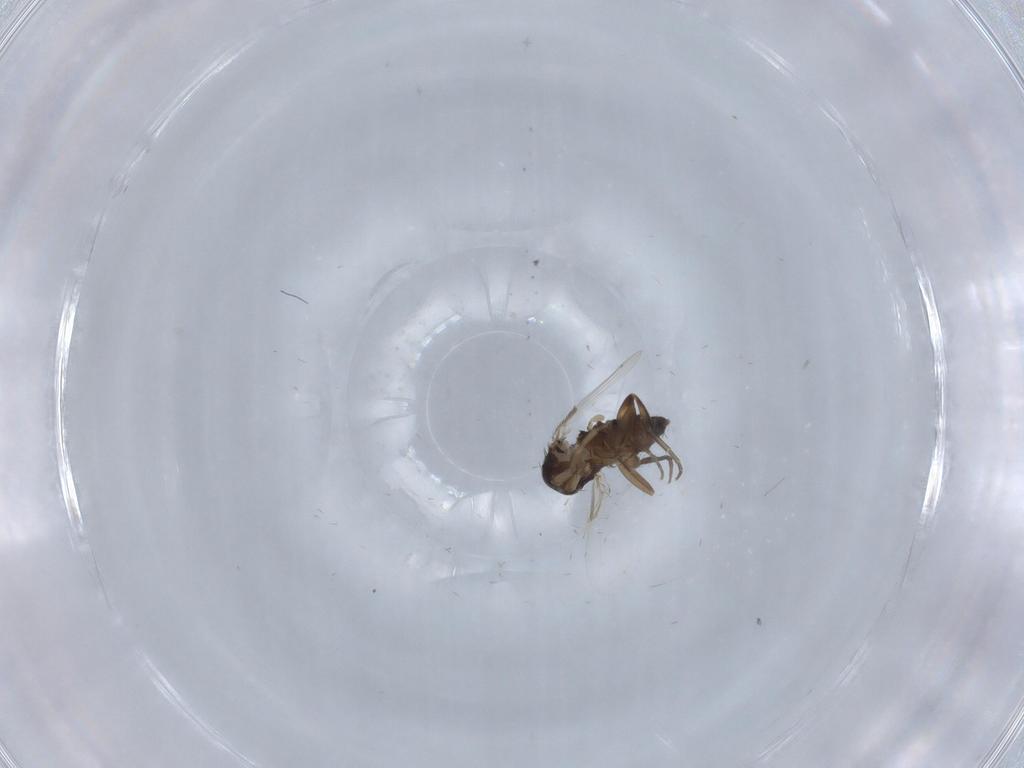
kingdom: Animalia
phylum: Arthropoda
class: Insecta
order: Diptera
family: Phoridae
